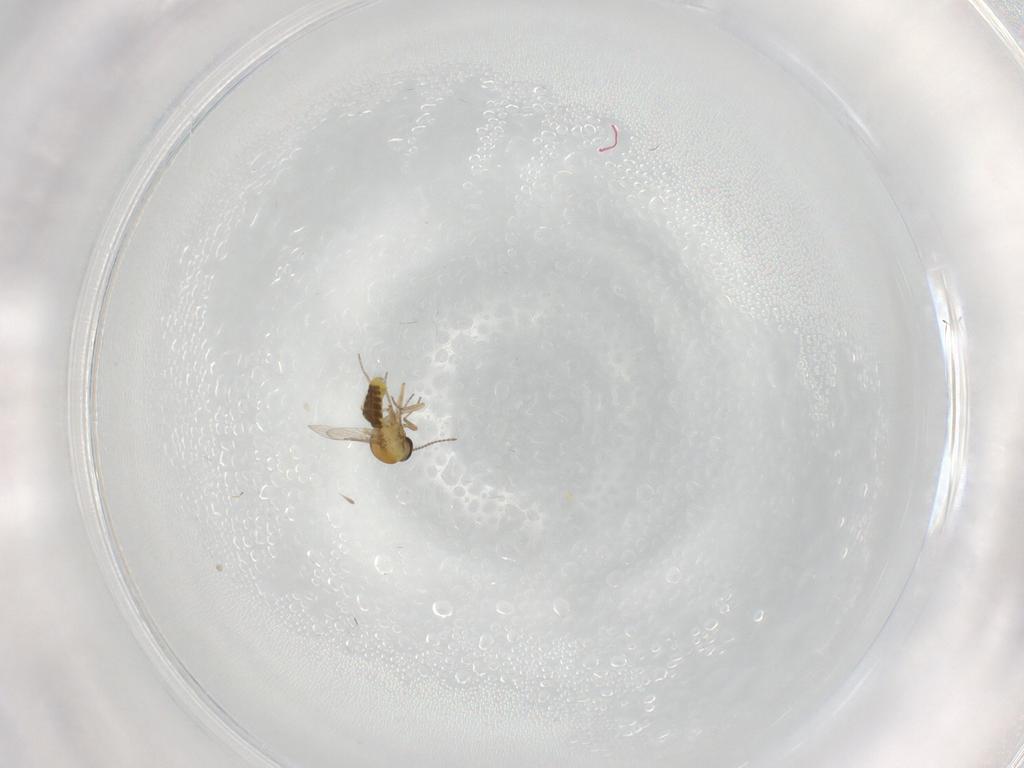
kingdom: Animalia
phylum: Arthropoda
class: Insecta
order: Diptera
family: Ceratopogonidae
